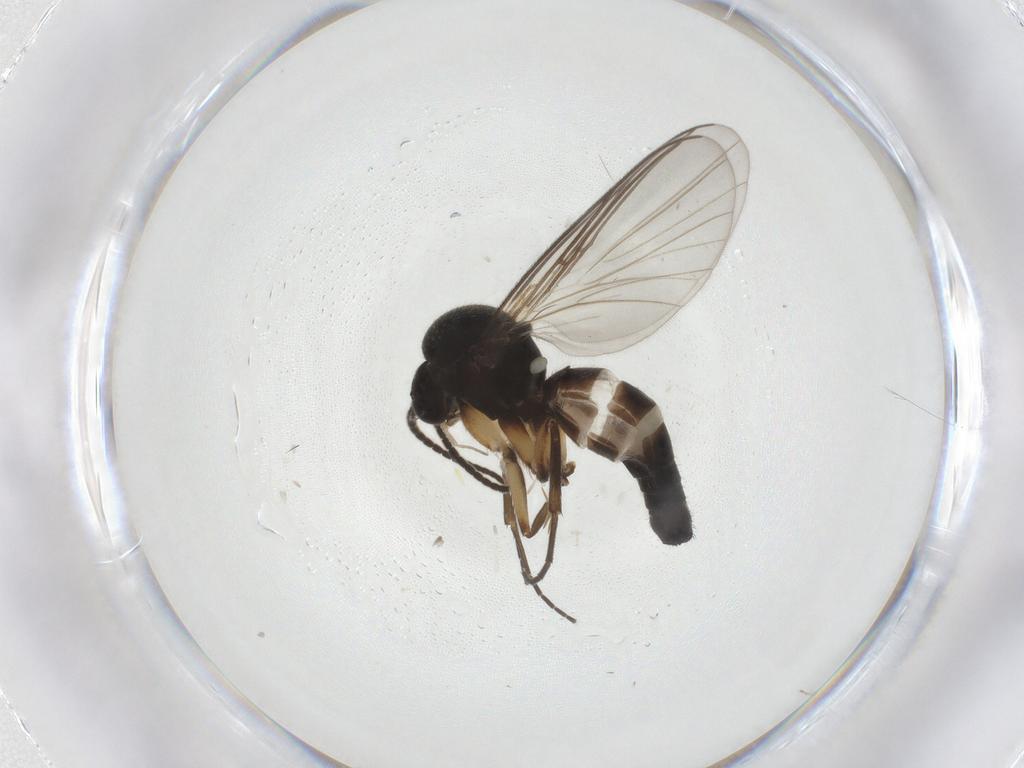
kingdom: Animalia
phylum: Arthropoda
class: Insecta
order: Diptera
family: Mycetophilidae
